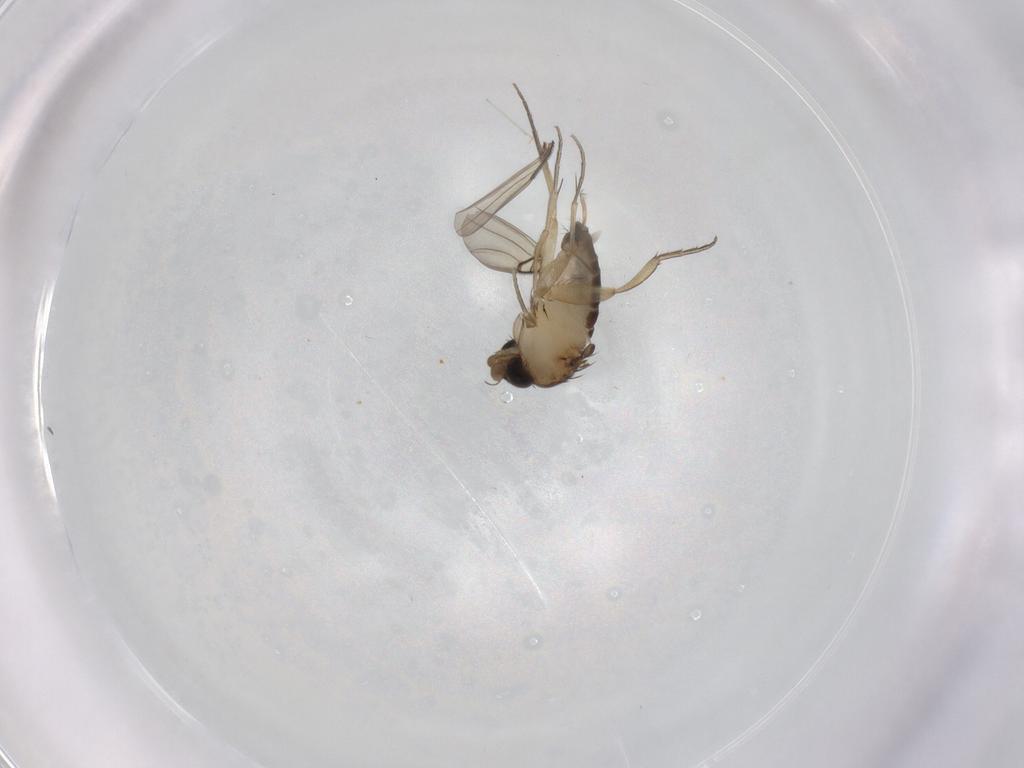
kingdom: Animalia
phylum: Arthropoda
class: Insecta
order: Diptera
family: Phoridae
